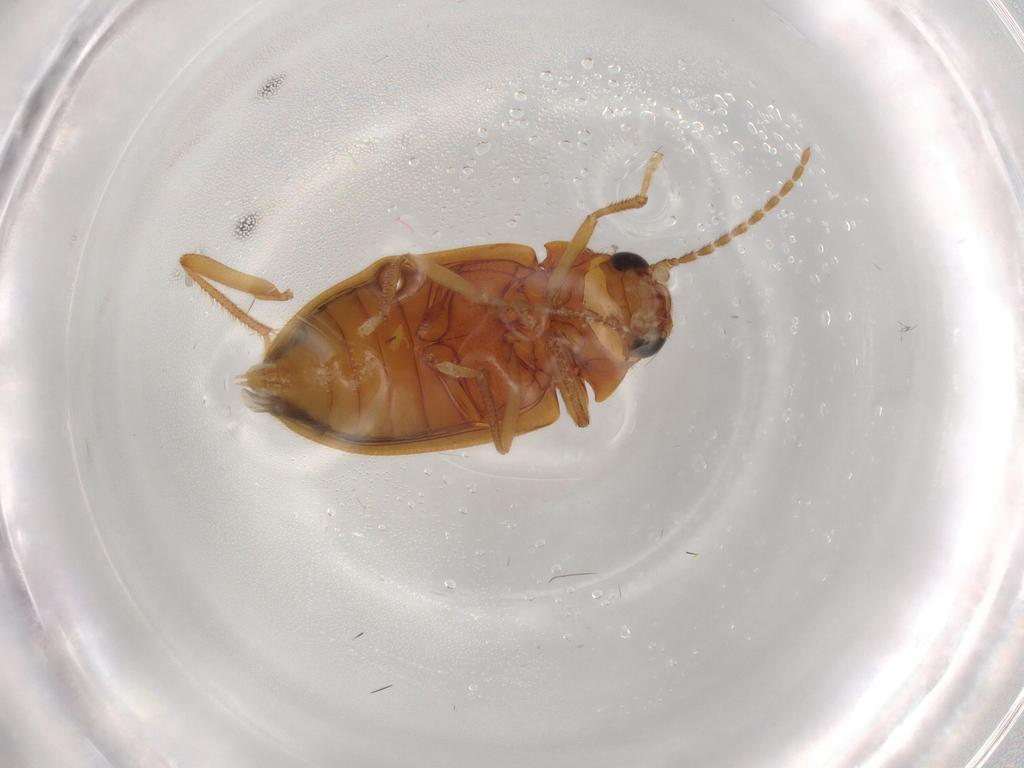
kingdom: Animalia
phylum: Arthropoda
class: Insecta
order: Coleoptera
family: Ptilodactylidae
